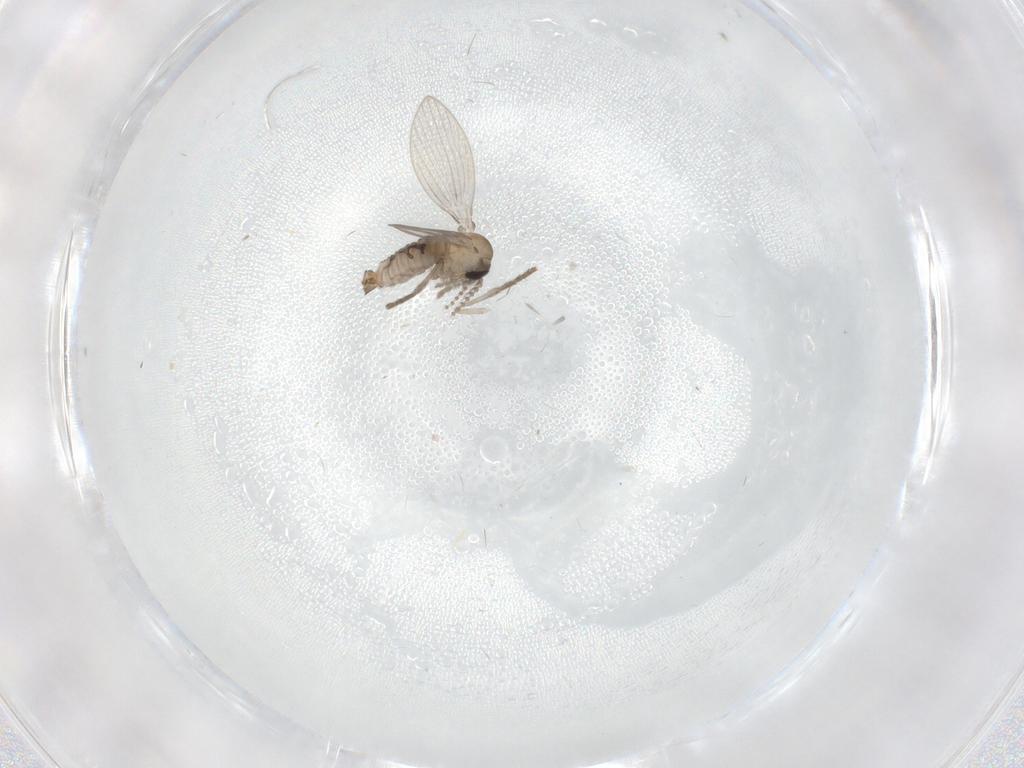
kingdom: Animalia
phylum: Arthropoda
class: Insecta
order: Diptera
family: Psychodidae
